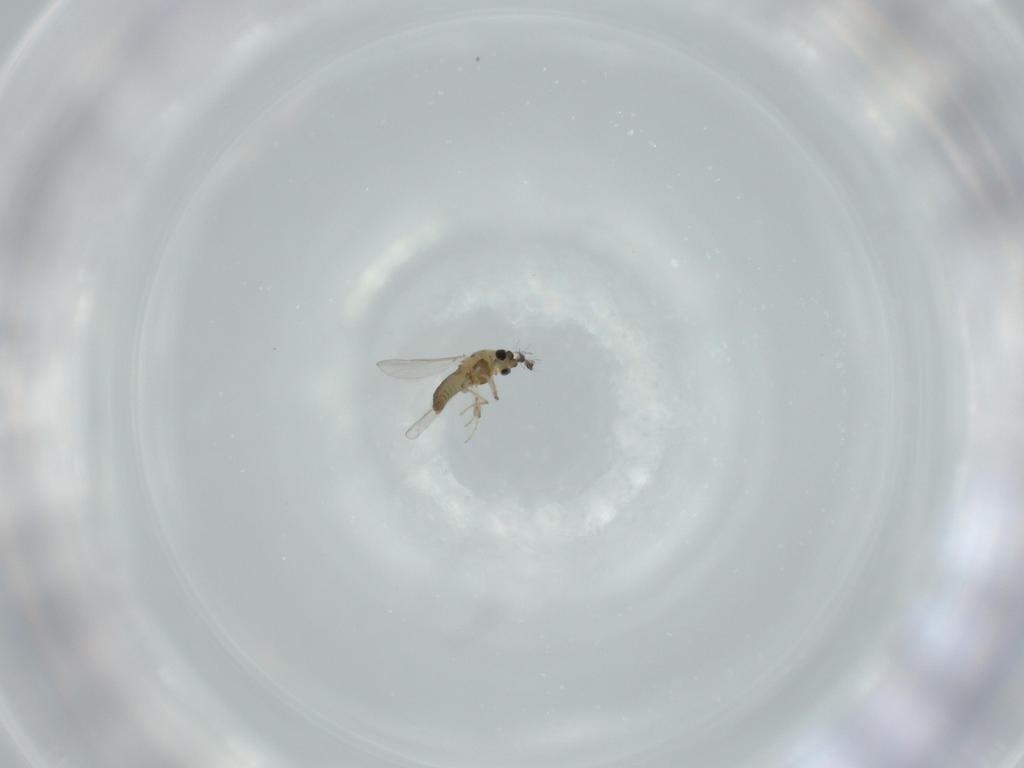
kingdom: Animalia
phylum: Arthropoda
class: Insecta
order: Diptera
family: Chironomidae
